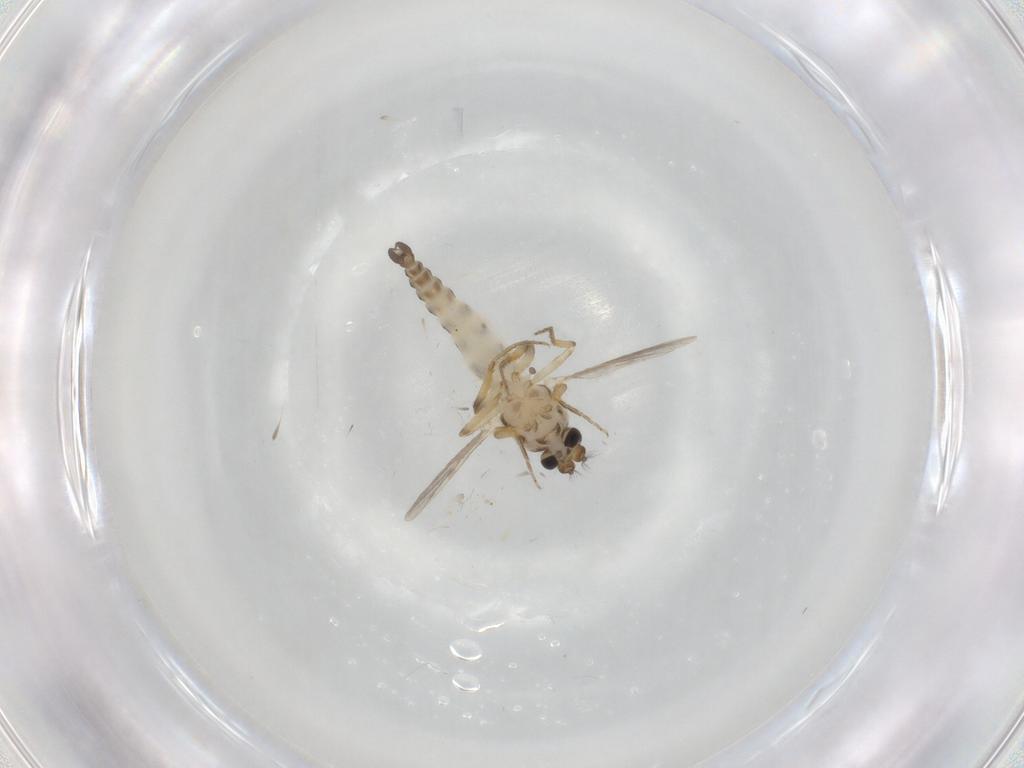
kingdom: Animalia
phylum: Arthropoda
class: Insecta
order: Diptera
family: Ceratopogonidae
